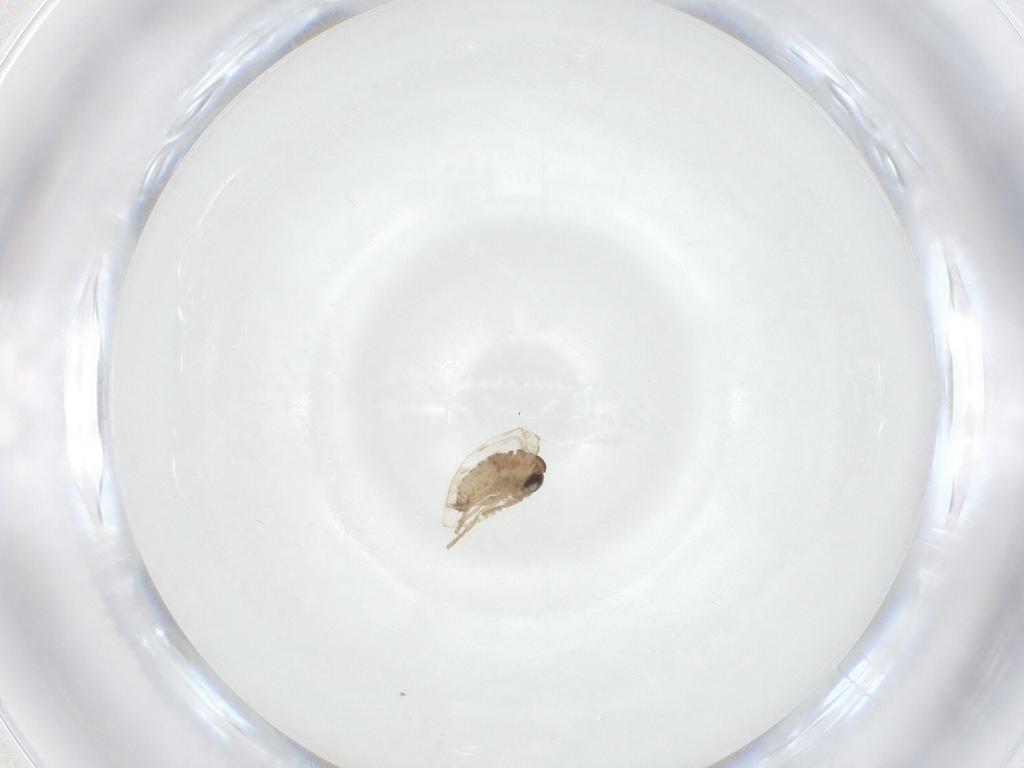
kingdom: Animalia
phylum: Arthropoda
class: Insecta
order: Diptera
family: Psychodidae
